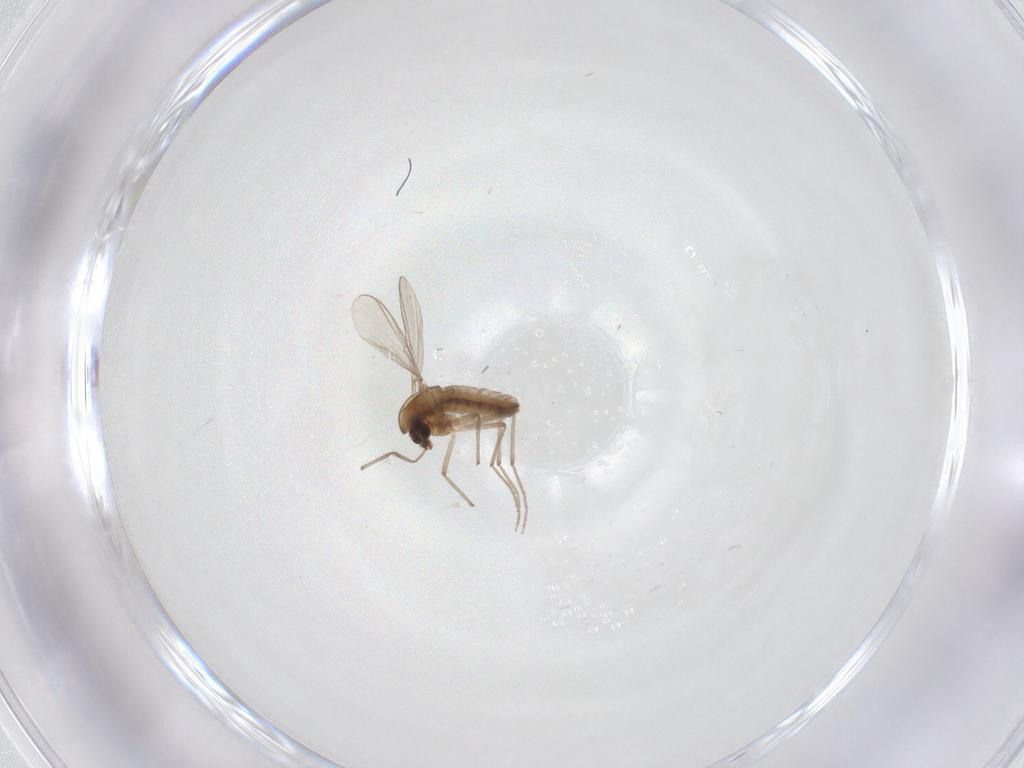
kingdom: Animalia
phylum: Arthropoda
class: Insecta
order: Diptera
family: Chironomidae
